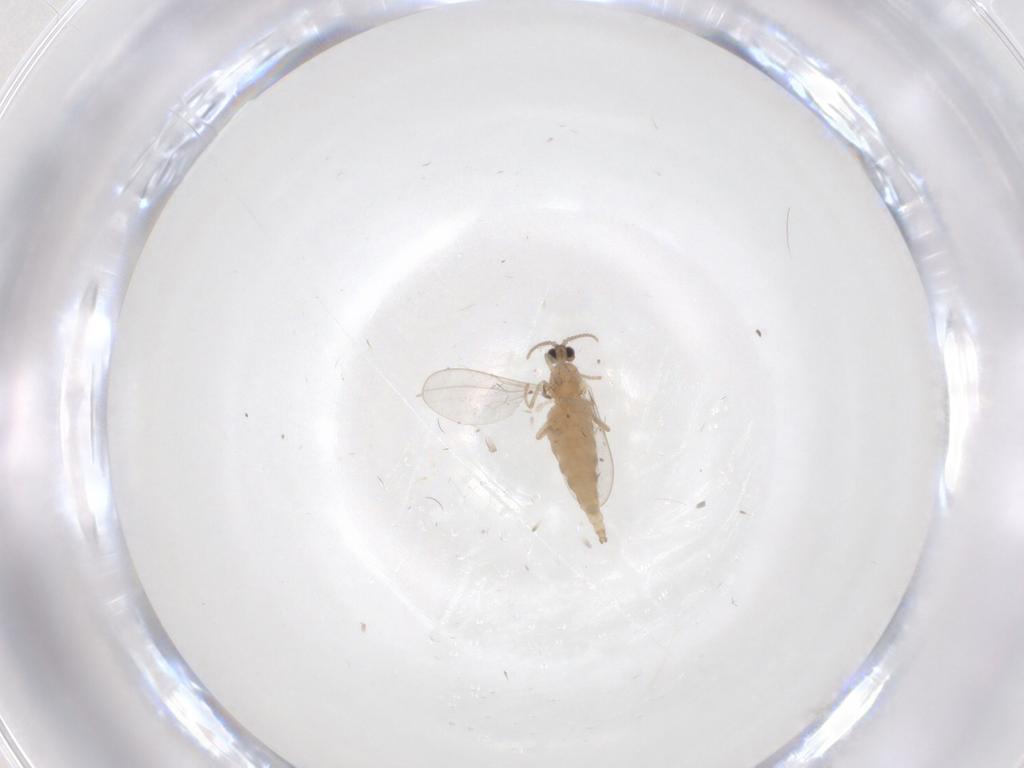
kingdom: Animalia
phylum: Arthropoda
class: Insecta
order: Diptera
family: Cecidomyiidae
